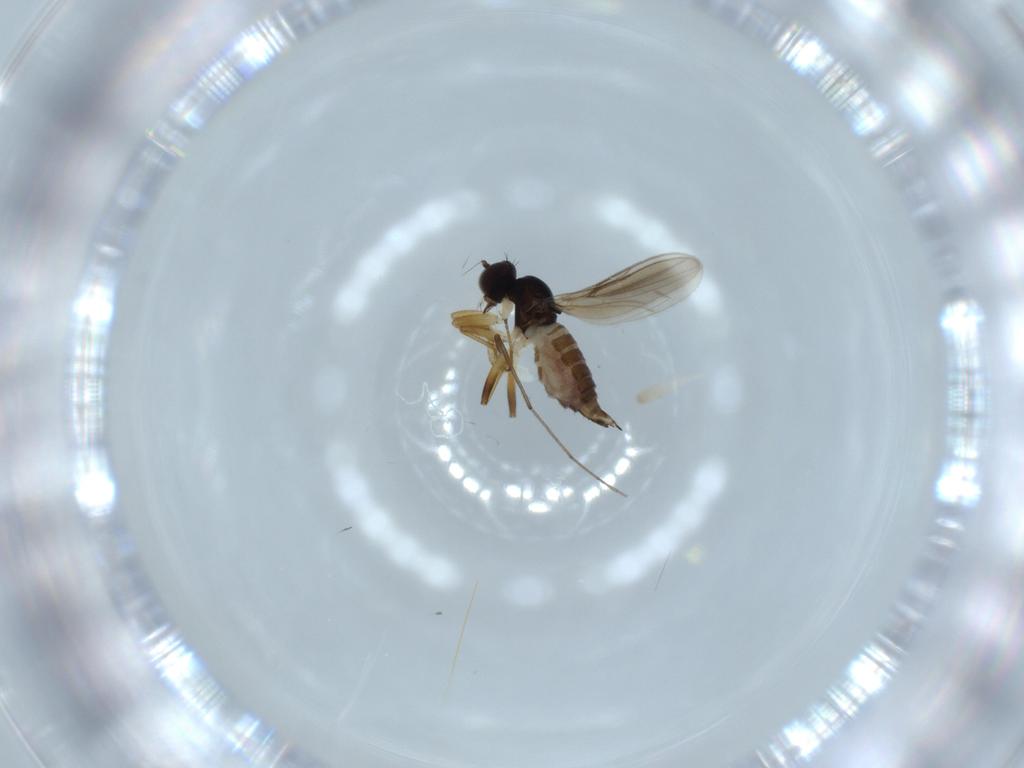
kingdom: Animalia
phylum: Arthropoda
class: Insecta
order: Diptera
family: Hybotidae
